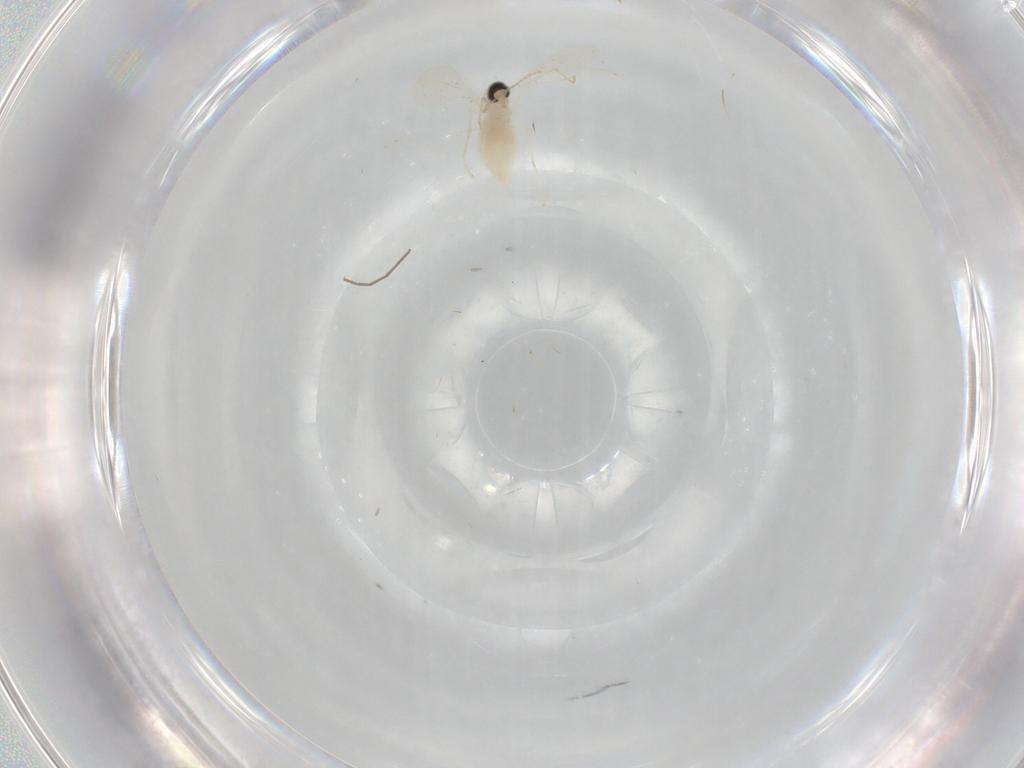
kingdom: Animalia
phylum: Arthropoda
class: Insecta
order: Diptera
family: Cecidomyiidae
